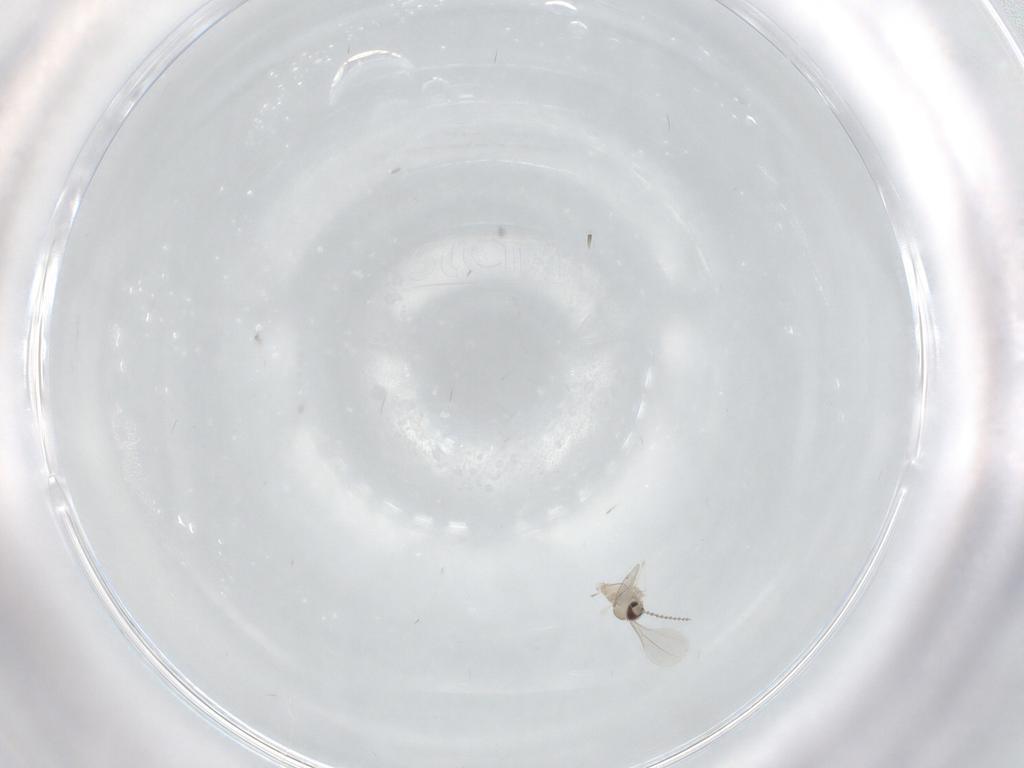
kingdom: Animalia
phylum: Arthropoda
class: Insecta
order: Diptera
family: Cecidomyiidae
